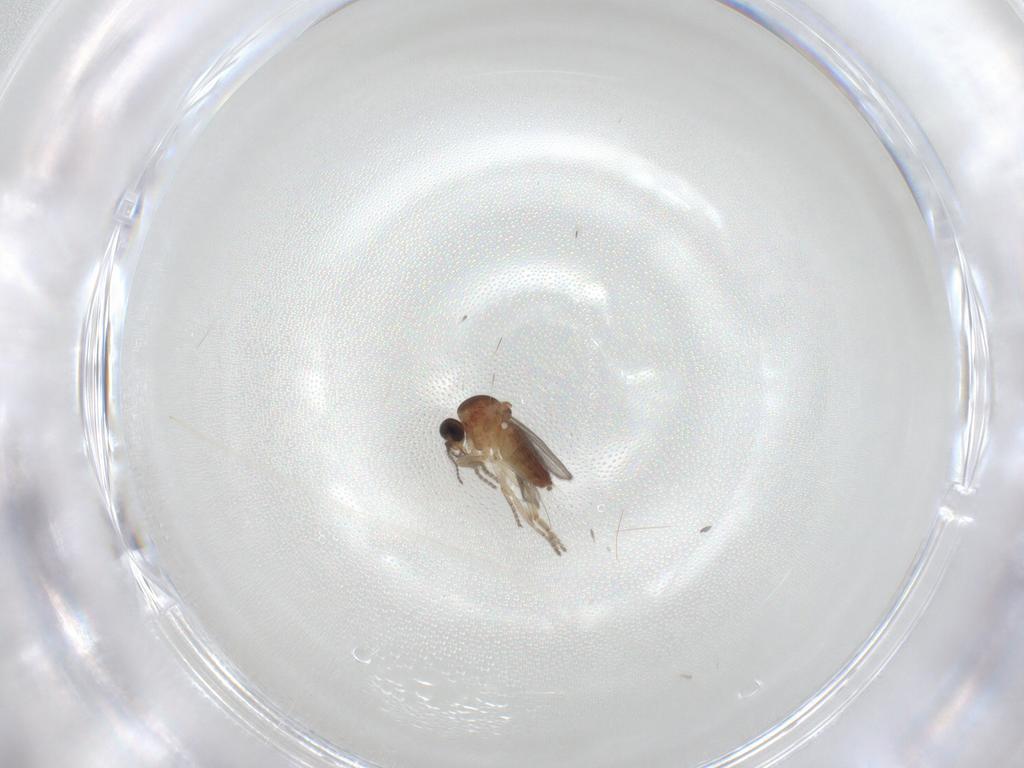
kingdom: Animalia
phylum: Arthropoda
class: Insecta
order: Diptera
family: Ceratopogonidae
